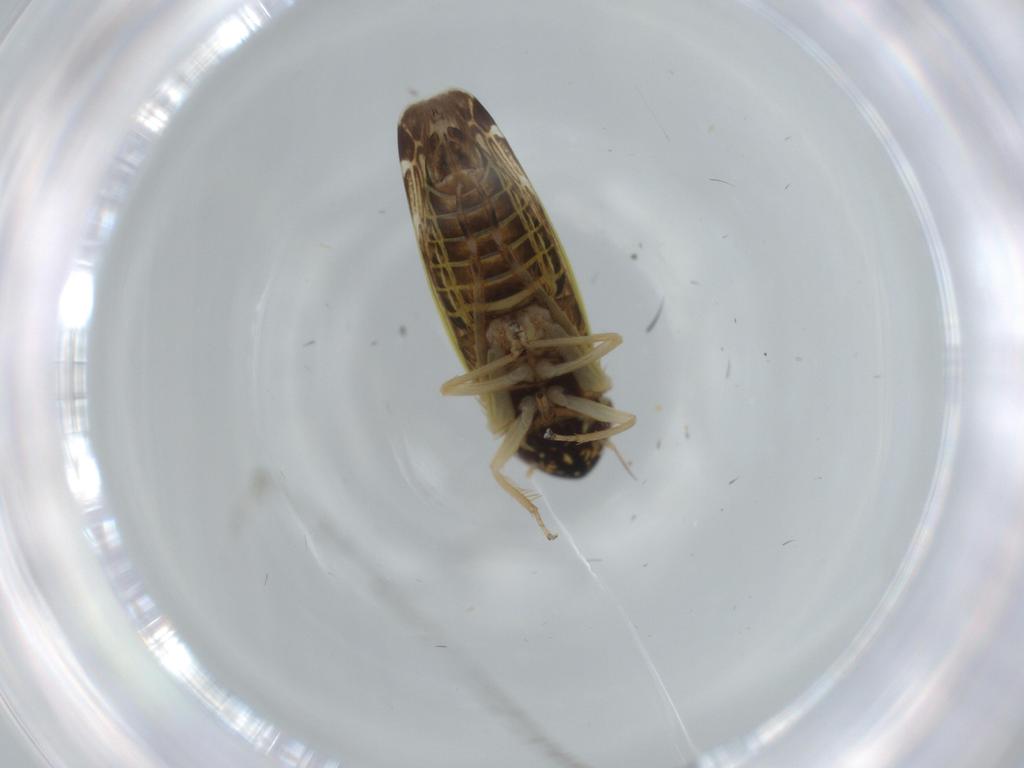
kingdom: Animalia
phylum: Arthropoda
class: Insecta
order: Hemiptera
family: Cicadellidae
